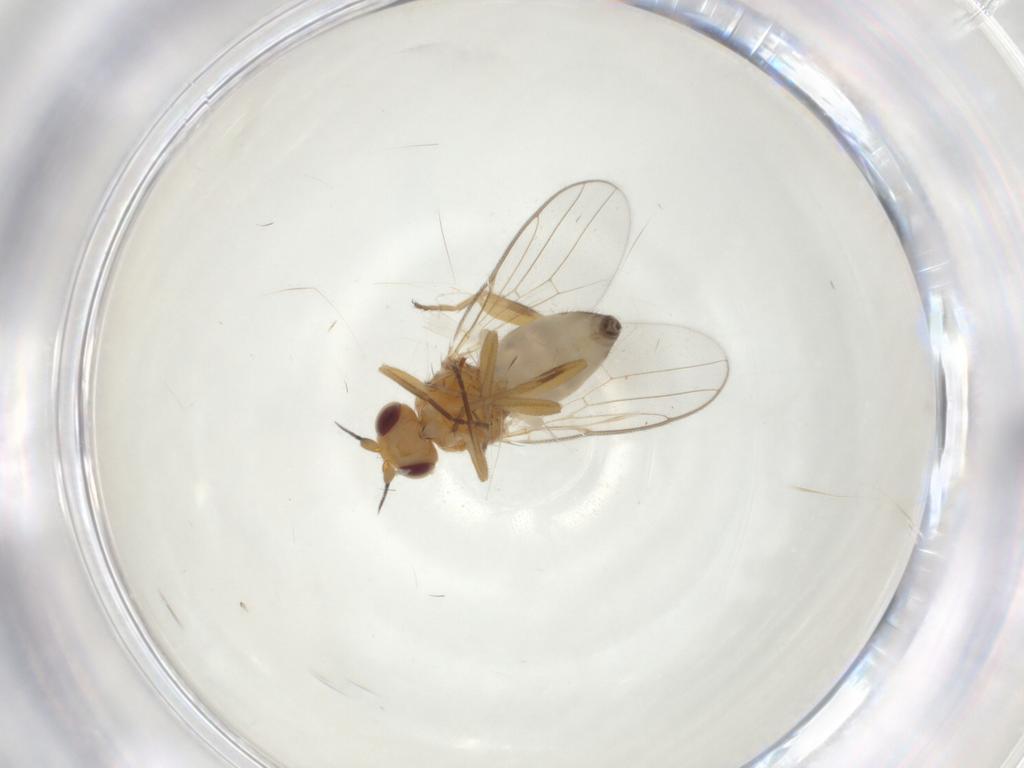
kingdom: Animalia
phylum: Arthropoda
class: Insecta
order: Diptera
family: Chloropidae
